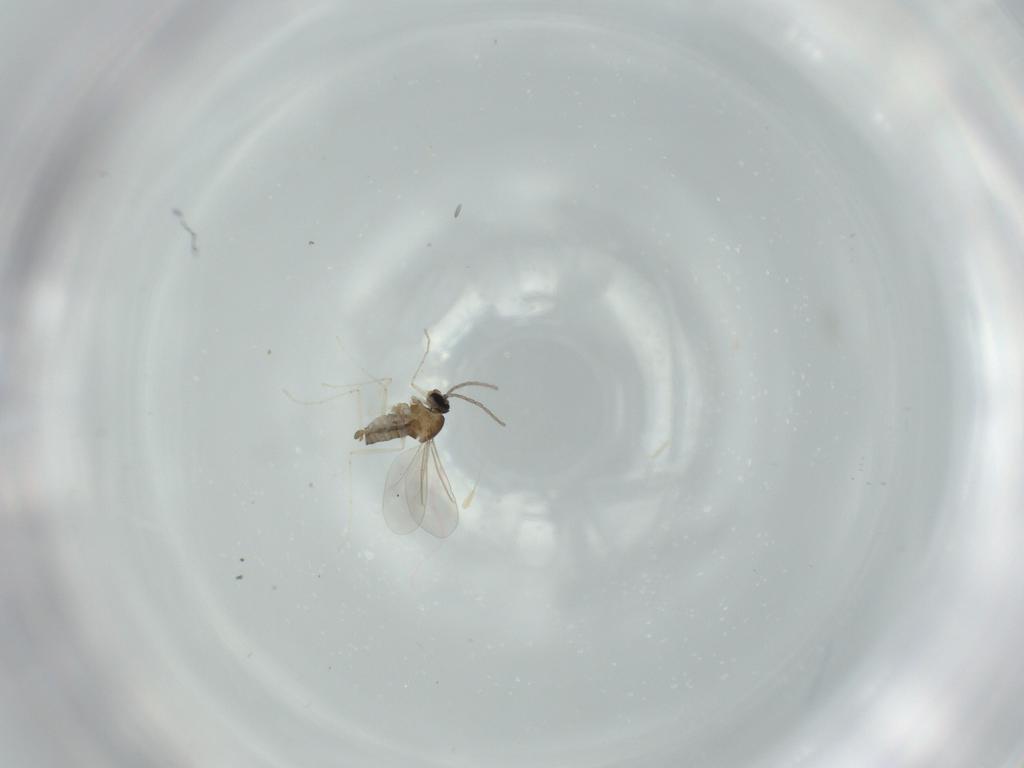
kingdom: Animalia
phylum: Arthropoda
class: Insecta
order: Diptera
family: Cecidomyiidae
